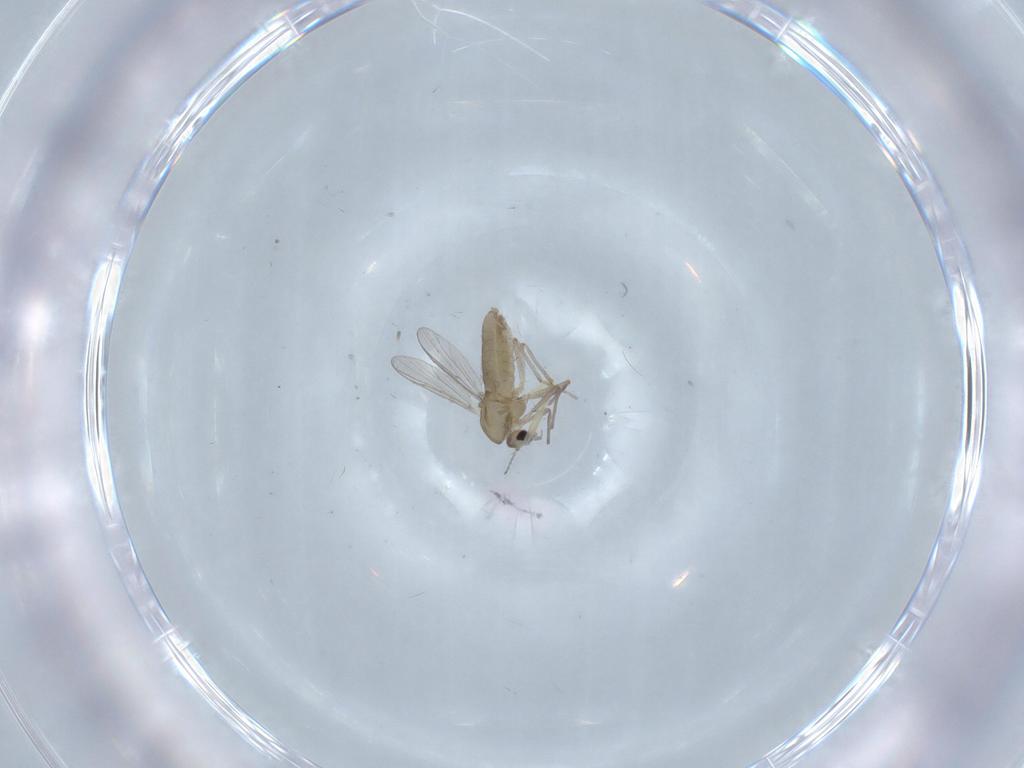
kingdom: Animalia
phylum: Arthropoda
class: Insecta
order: Diptera
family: Chironomidae
